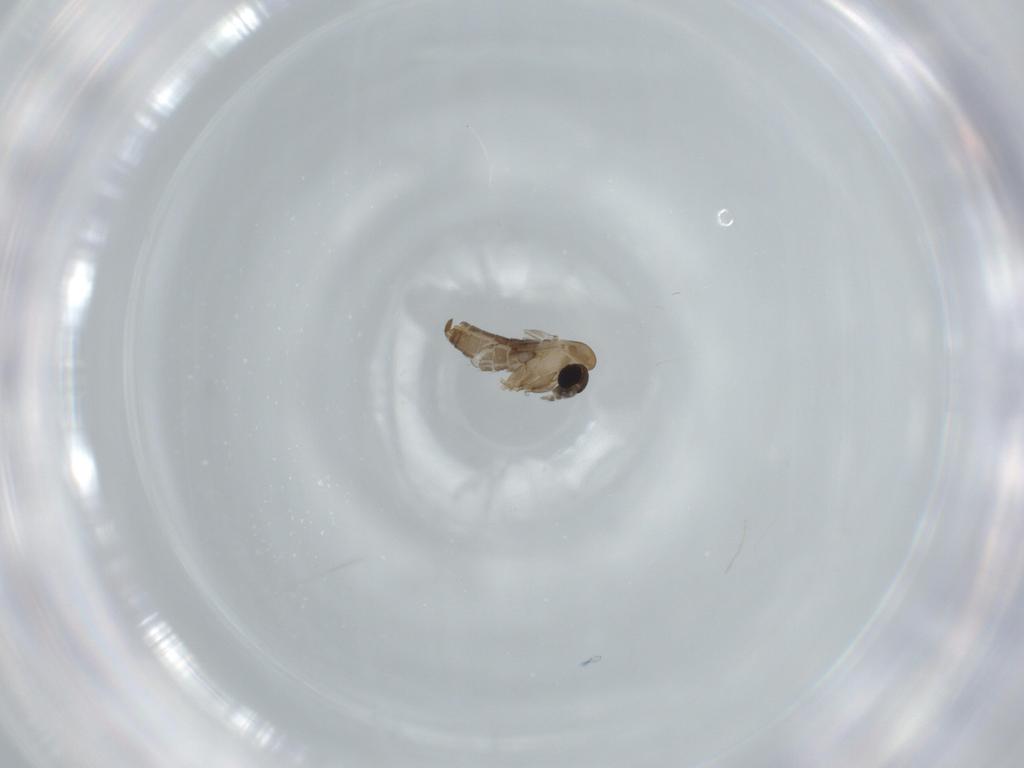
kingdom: Animalia
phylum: Arthropoda
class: Insecta
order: Diptera
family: Psychodidae
